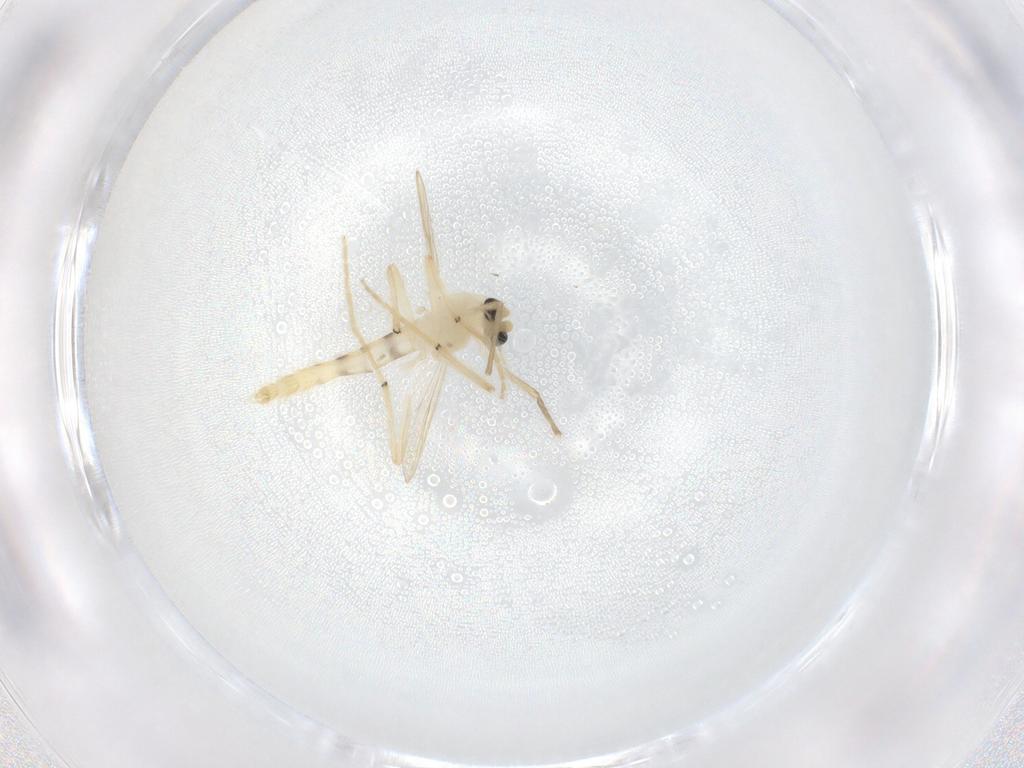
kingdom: Animalia
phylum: Arthropoda
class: Insecta
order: Diptera
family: Chironomidae
